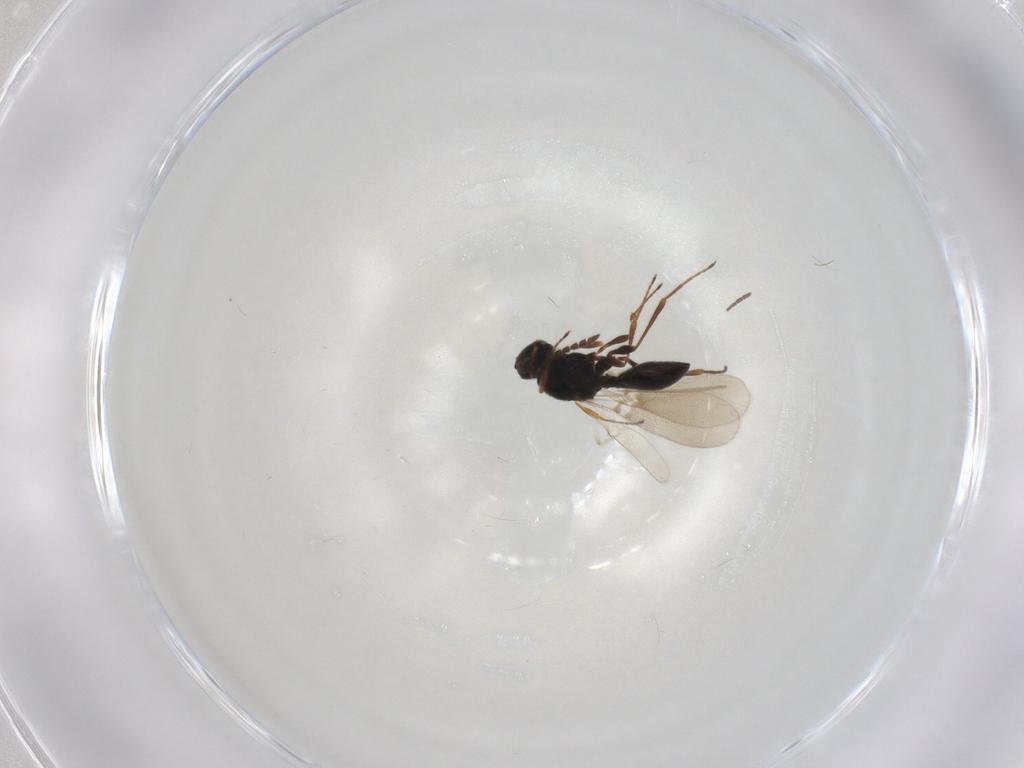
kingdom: Animalia
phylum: Arthropoda
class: Insecta
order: Hymenoptera
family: Platygastridae
